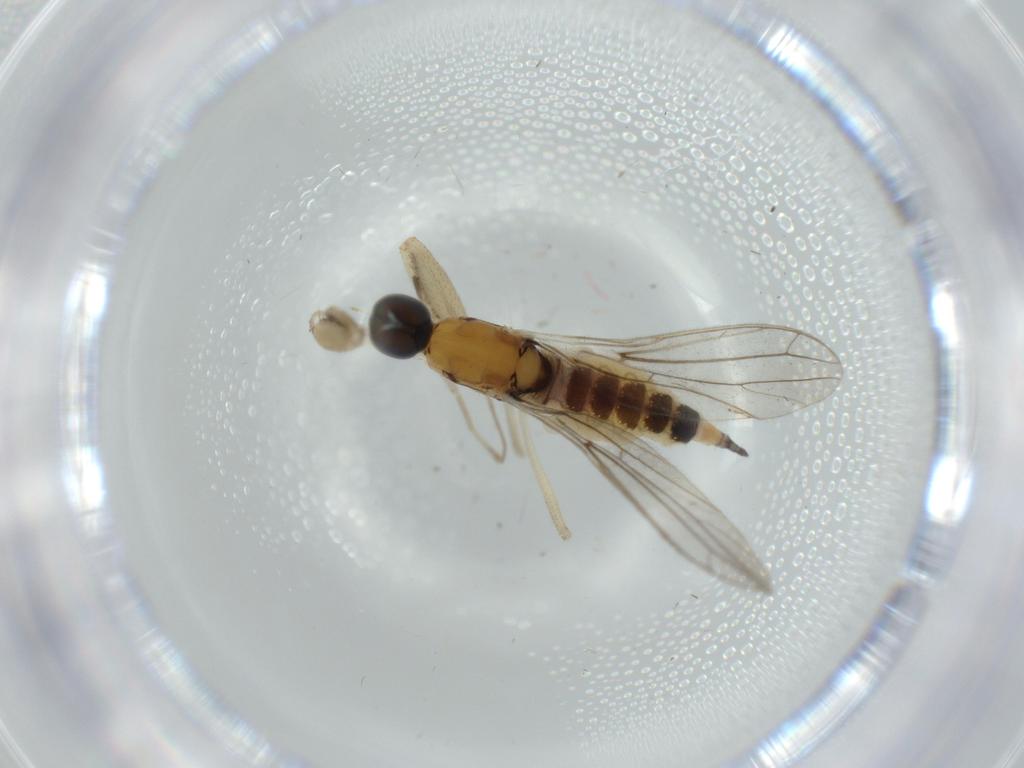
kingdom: Animalia
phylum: Arthropoda
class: Insecta
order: Diptera
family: Empididae
